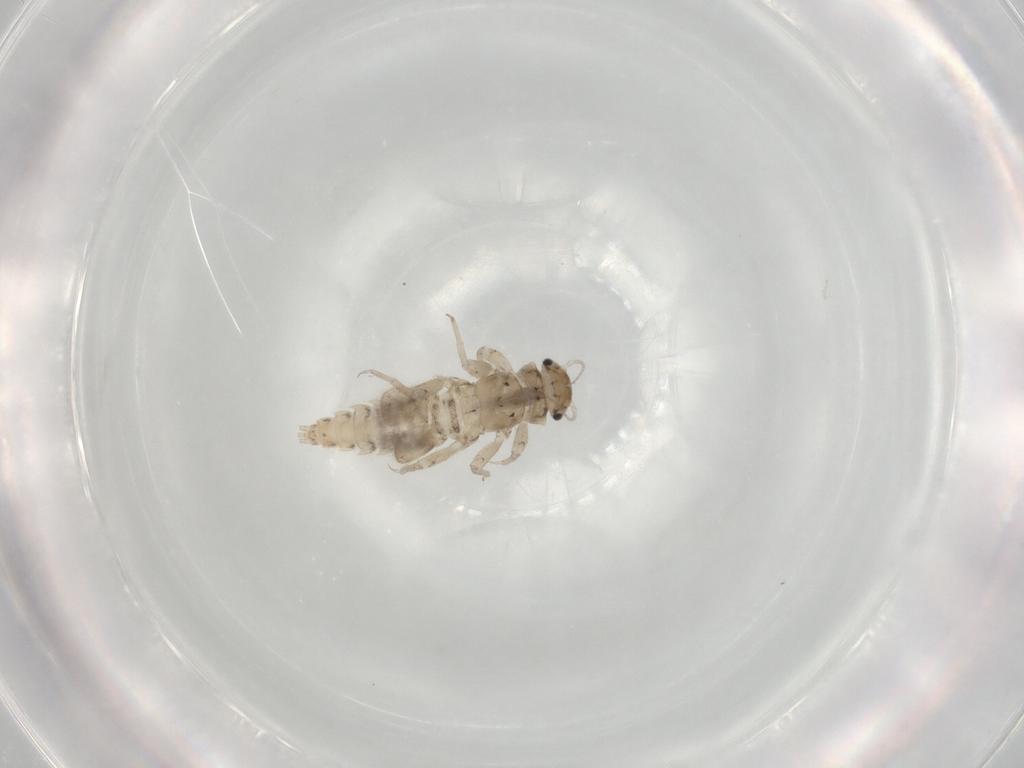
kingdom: Animalia
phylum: Arthropoda
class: Insecta
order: Ephemeroptera
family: Caenidae
